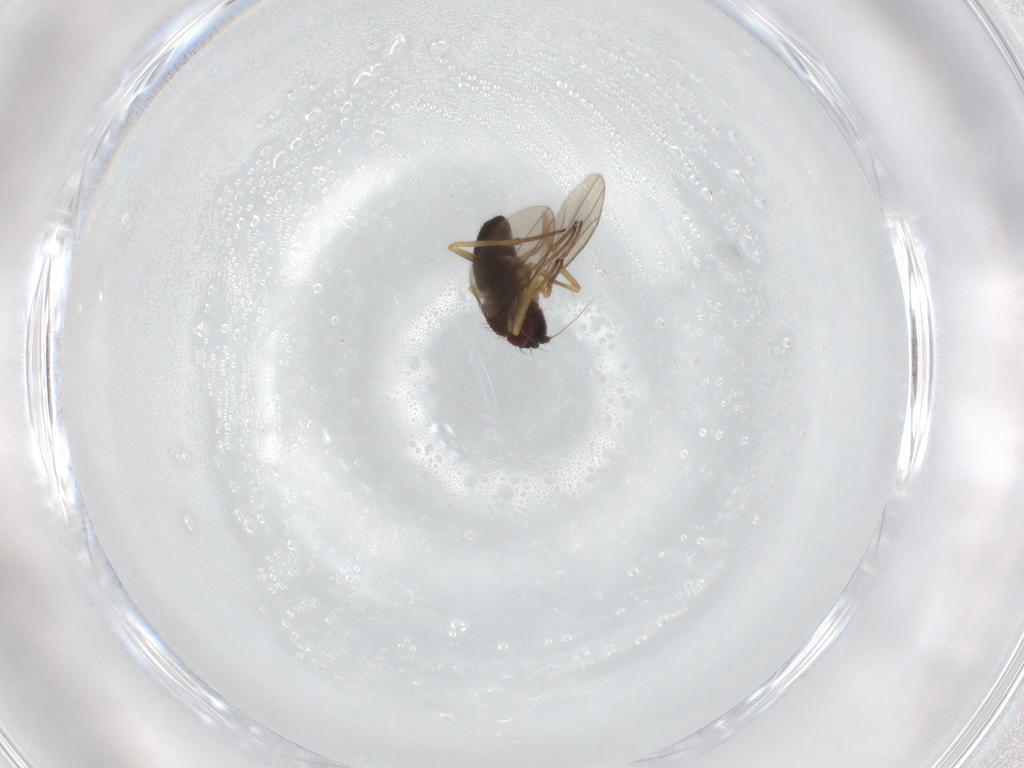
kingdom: Animalia
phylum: Arthropoda
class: Insecta
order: Diptera
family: Dolichopodidae
